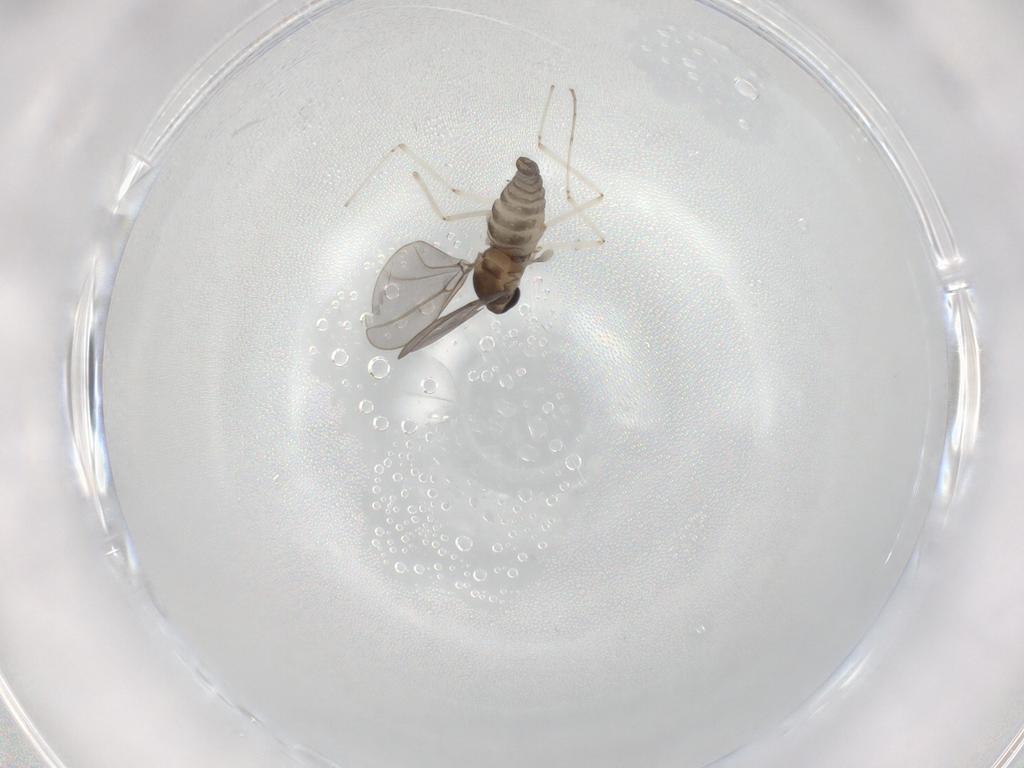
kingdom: Animalia
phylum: Arthropoda
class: Insecta
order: Diptera
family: Cecidomyiidae
